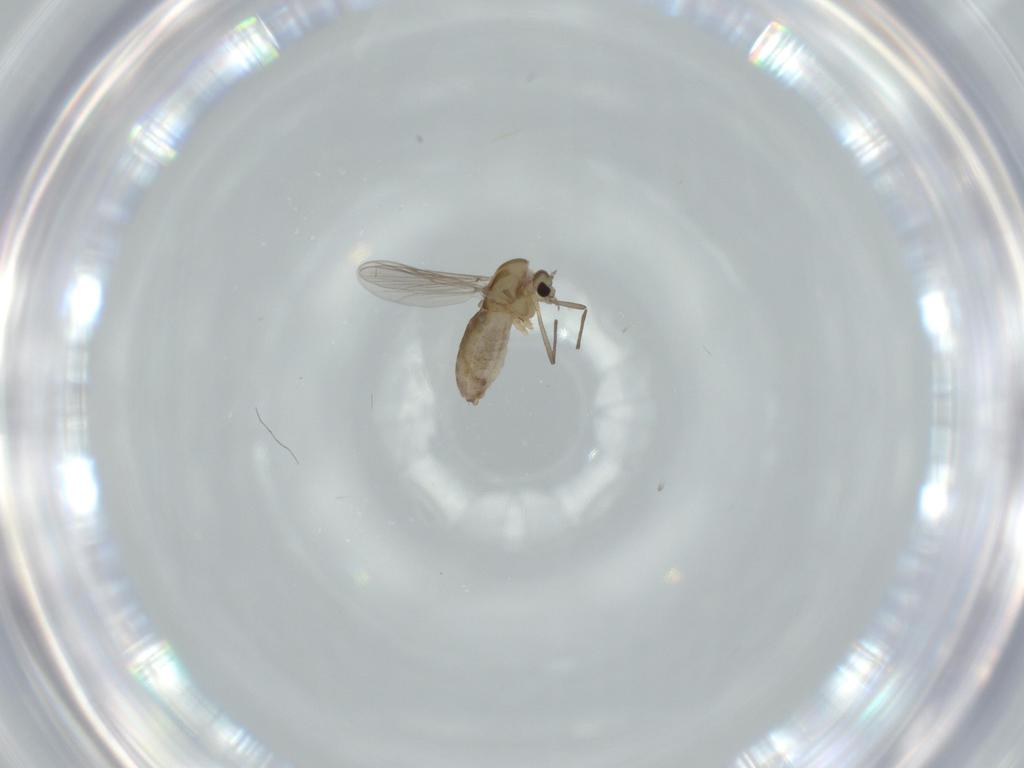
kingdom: Animalia
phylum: Arthropoda
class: Insecta
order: Diptera
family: Chironomidae
